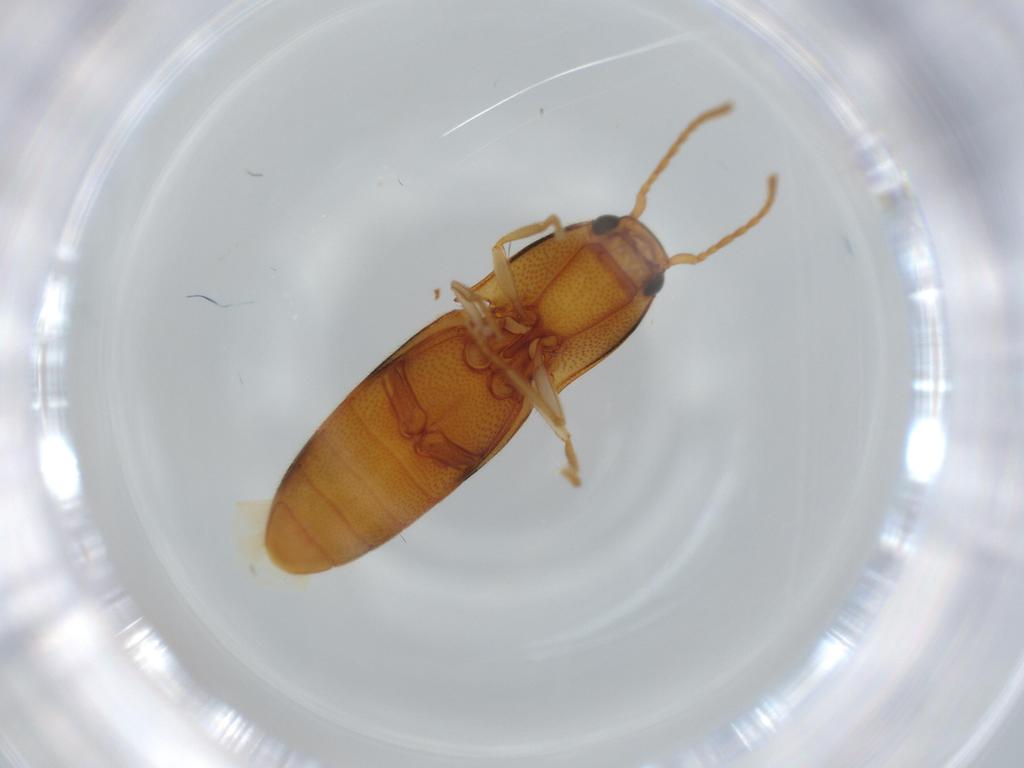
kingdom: Animalia
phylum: Arthropoda
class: Insecta
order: Coleoptera
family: Elateridae
